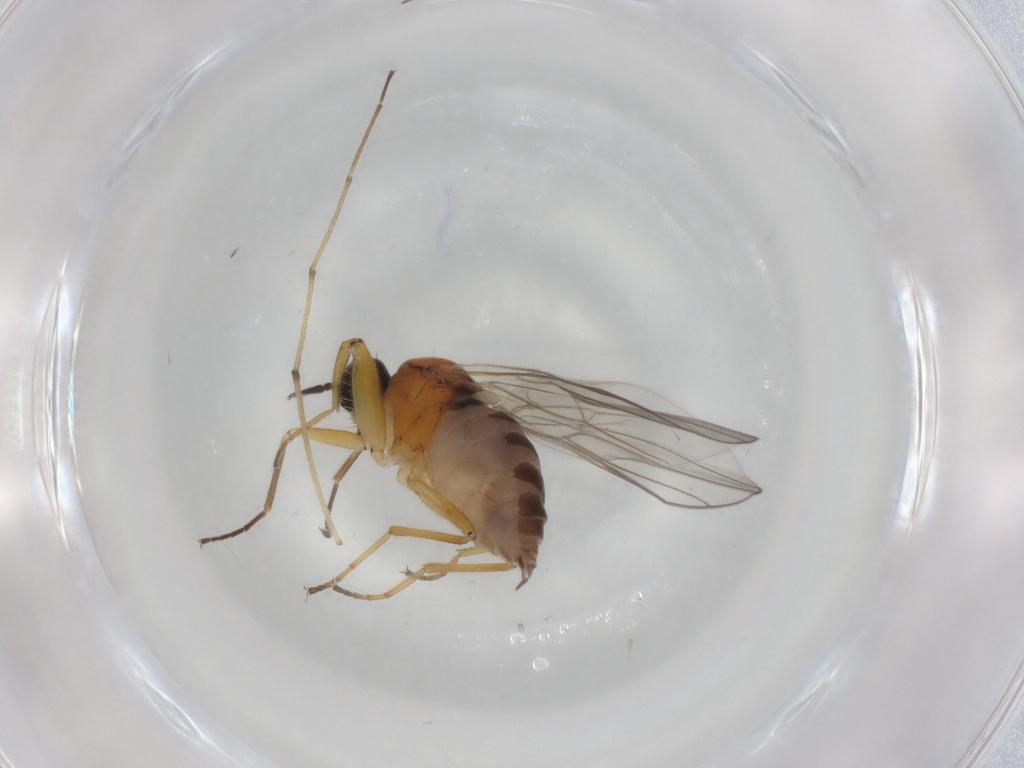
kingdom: Animalia
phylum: Arthropoda
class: Insecta
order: Diptera
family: Hybotidae
